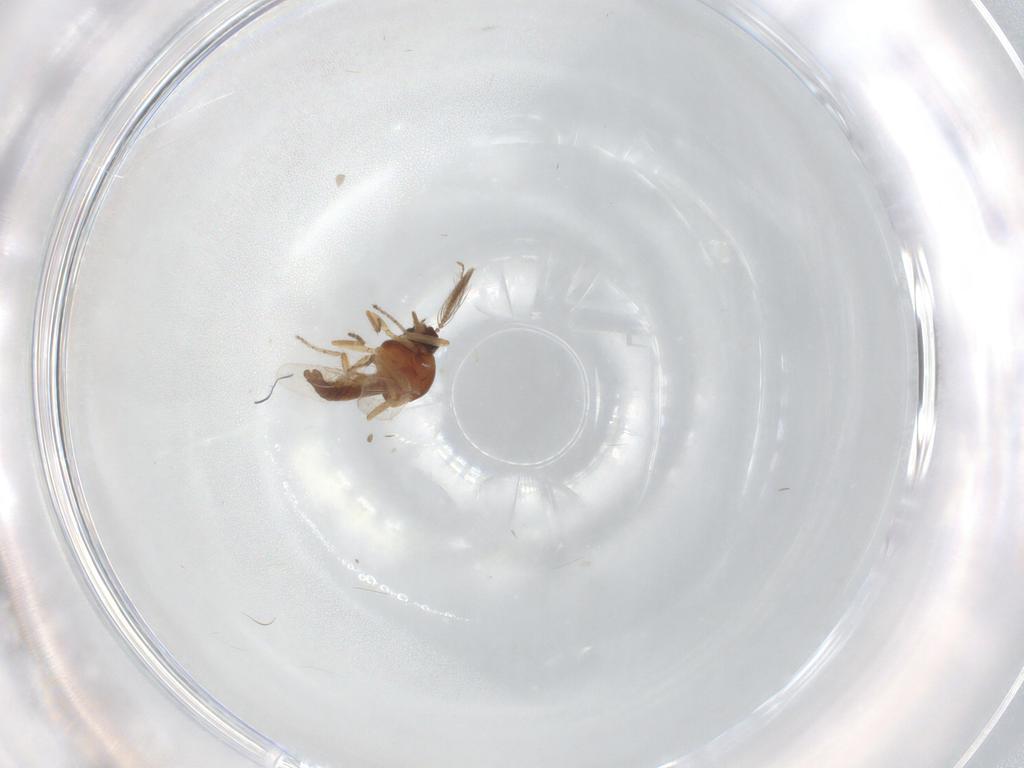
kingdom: Animalia
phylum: Arthropoda
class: Insecta
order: Diptera
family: Ceratopogonidae
